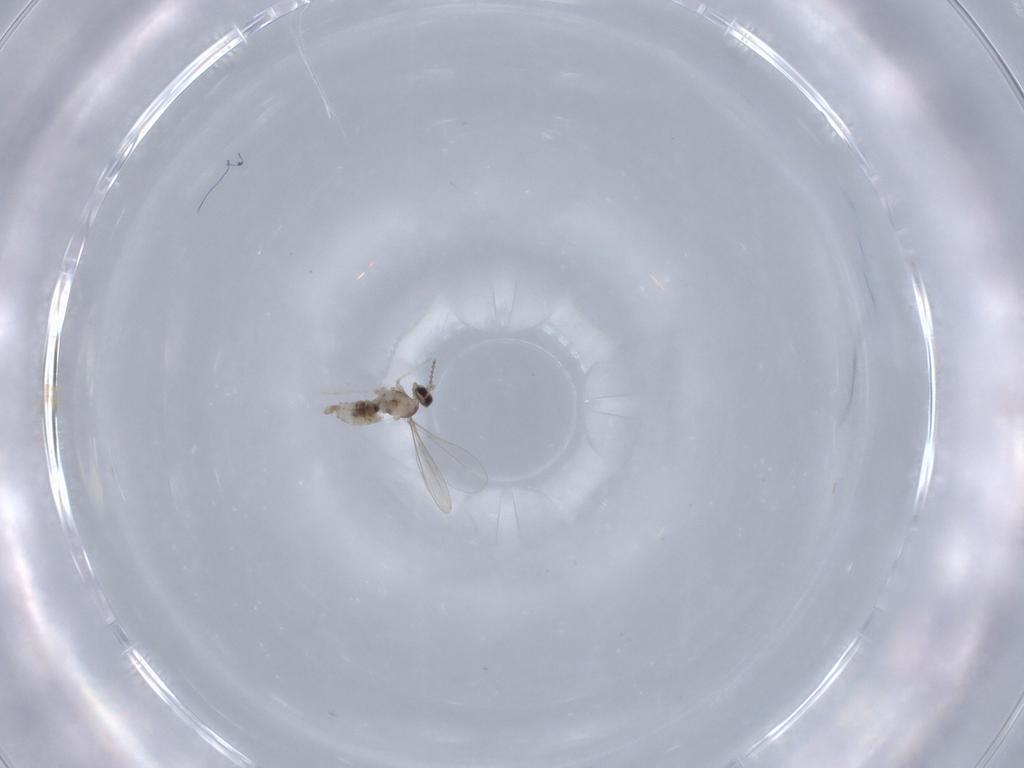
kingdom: Animalia
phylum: Arthropoda
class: Insecta
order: Diptera
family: Cecidomyiidae
